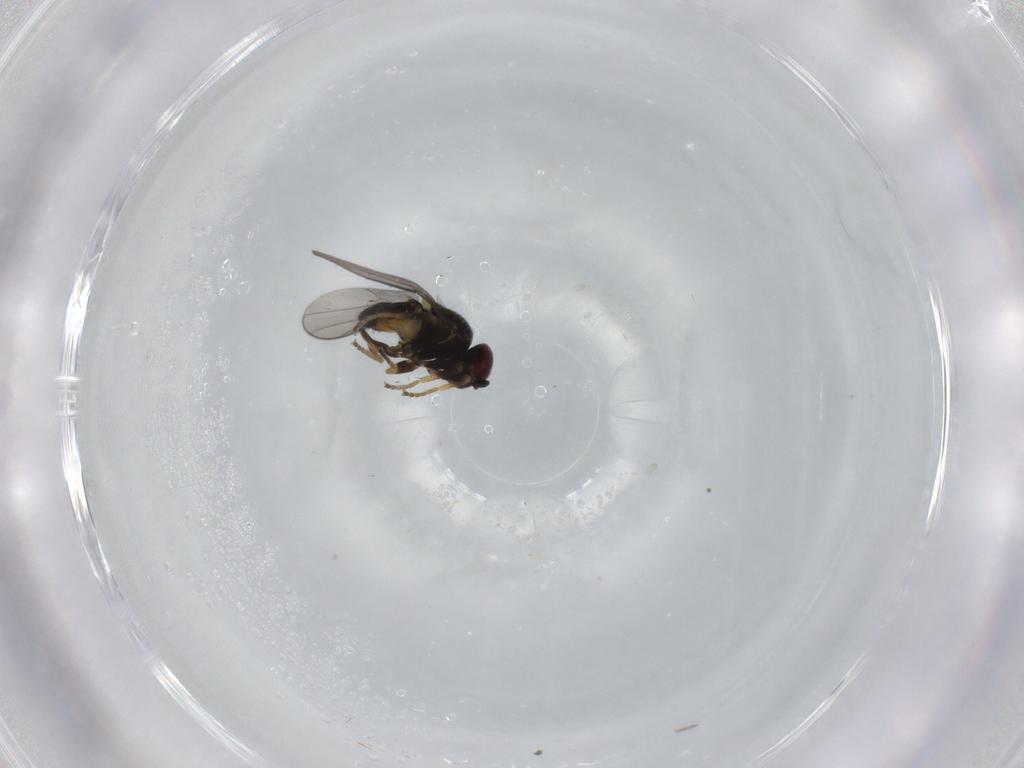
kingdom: Animalia
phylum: Arthropoda
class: Insecta
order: Diptera
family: Chloropidae
